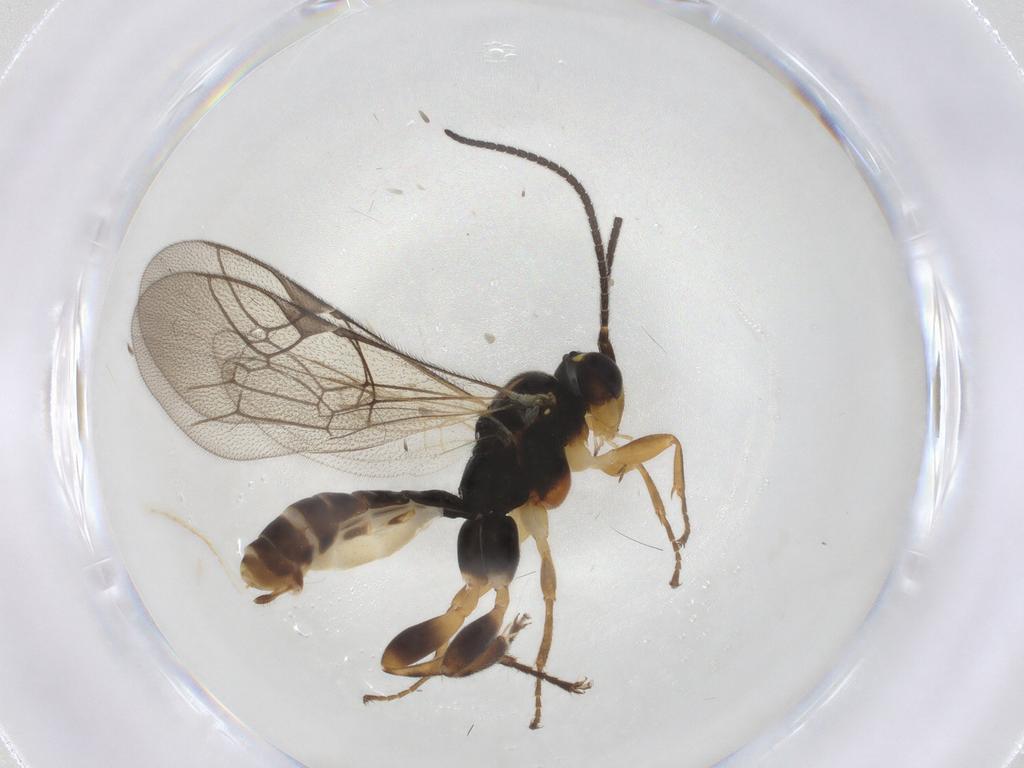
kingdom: Animalia
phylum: Arthropoda
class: Insecta
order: Hymenoptera
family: Ichneumonidae
